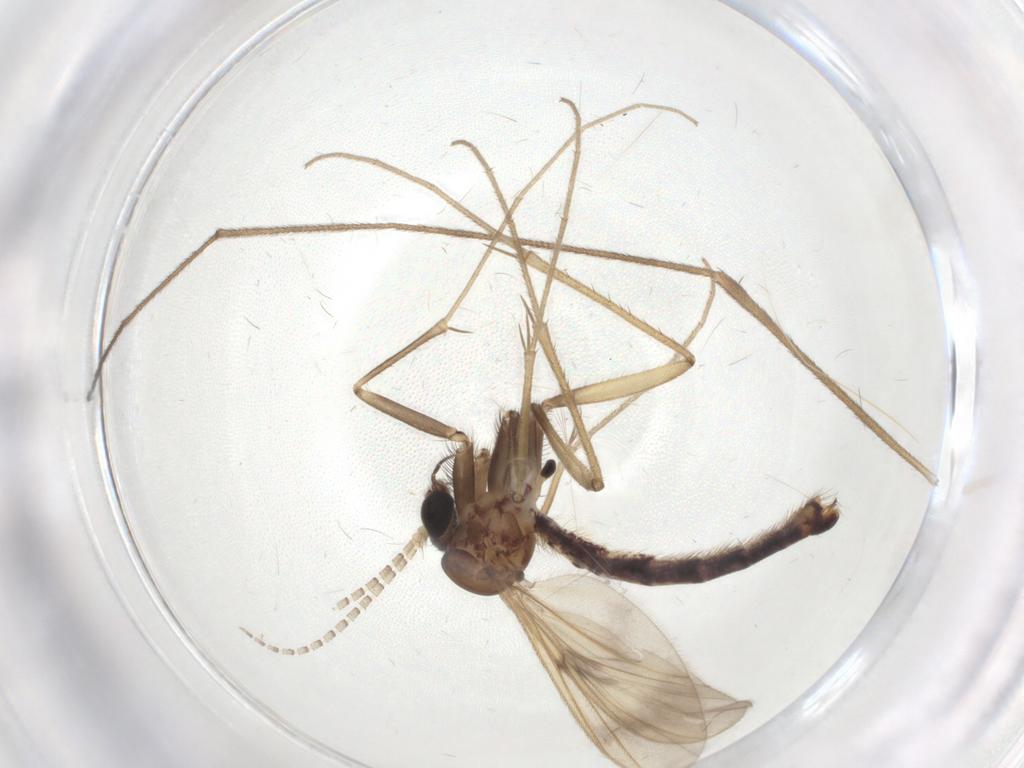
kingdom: Animalia
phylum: Arthropoda
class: Insecta
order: Diptera
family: Limoniidae
